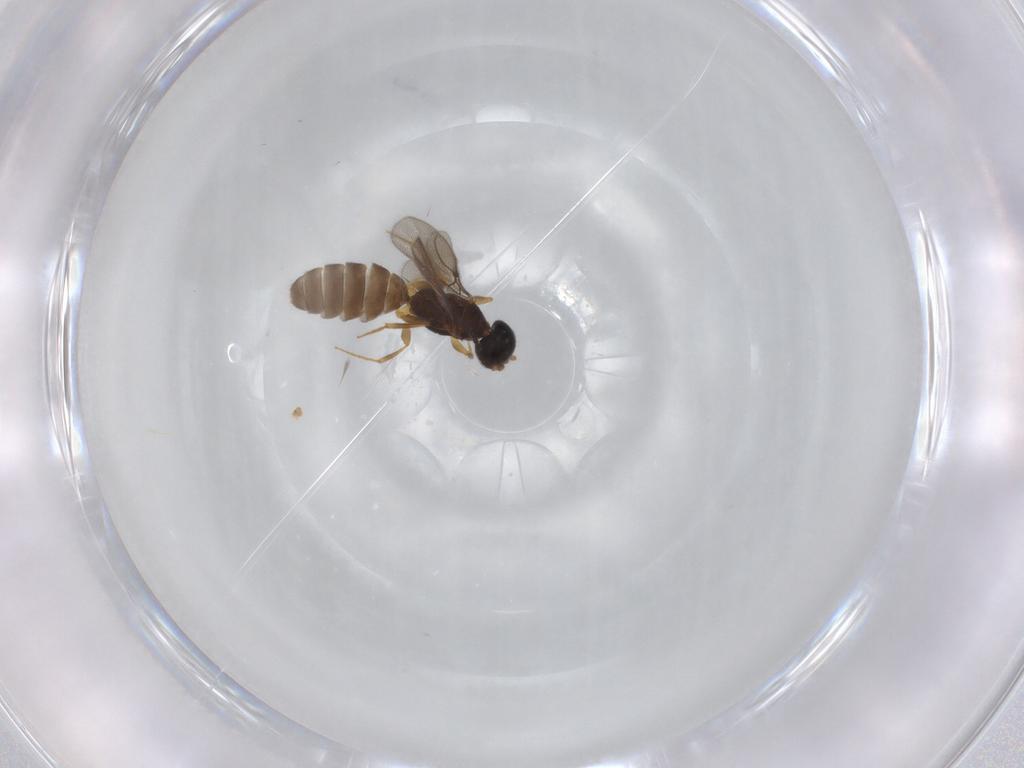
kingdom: Animalia
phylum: Arthropoda
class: Insecta
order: Hymenoptera
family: Bethylidae
